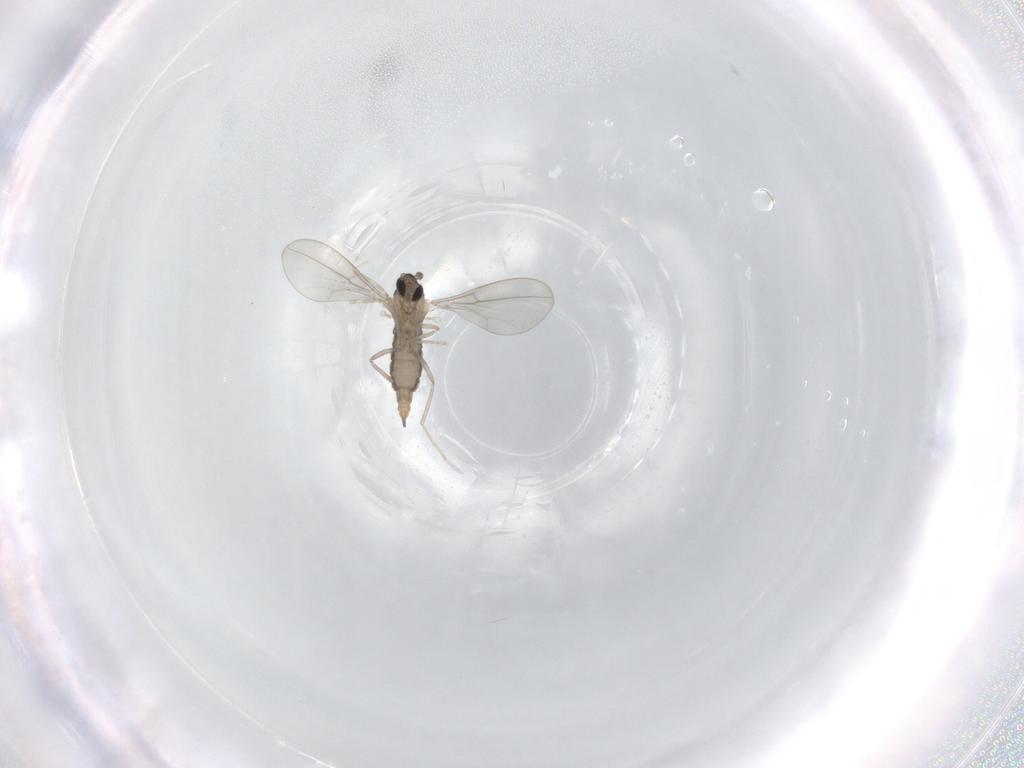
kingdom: Animalia
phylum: Arthropoda
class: Insecta
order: Diptera
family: Cecidomyiidae
